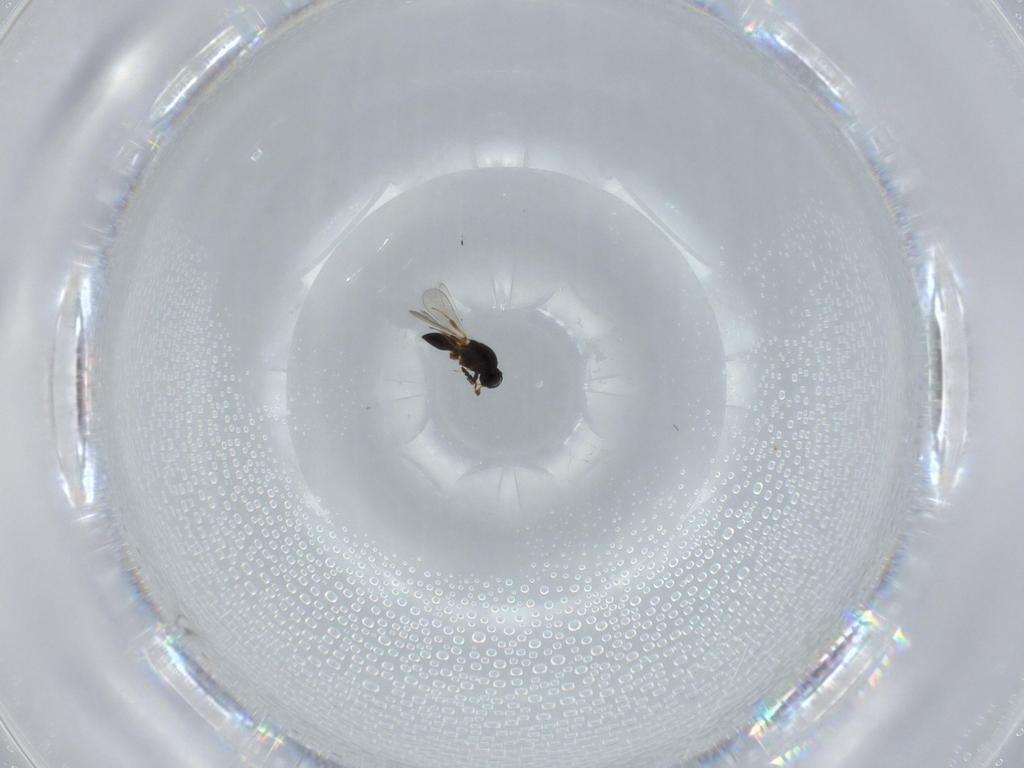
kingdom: Animalia
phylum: Arthropoda
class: Insecta
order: Hymenoptera
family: Platygastridae
